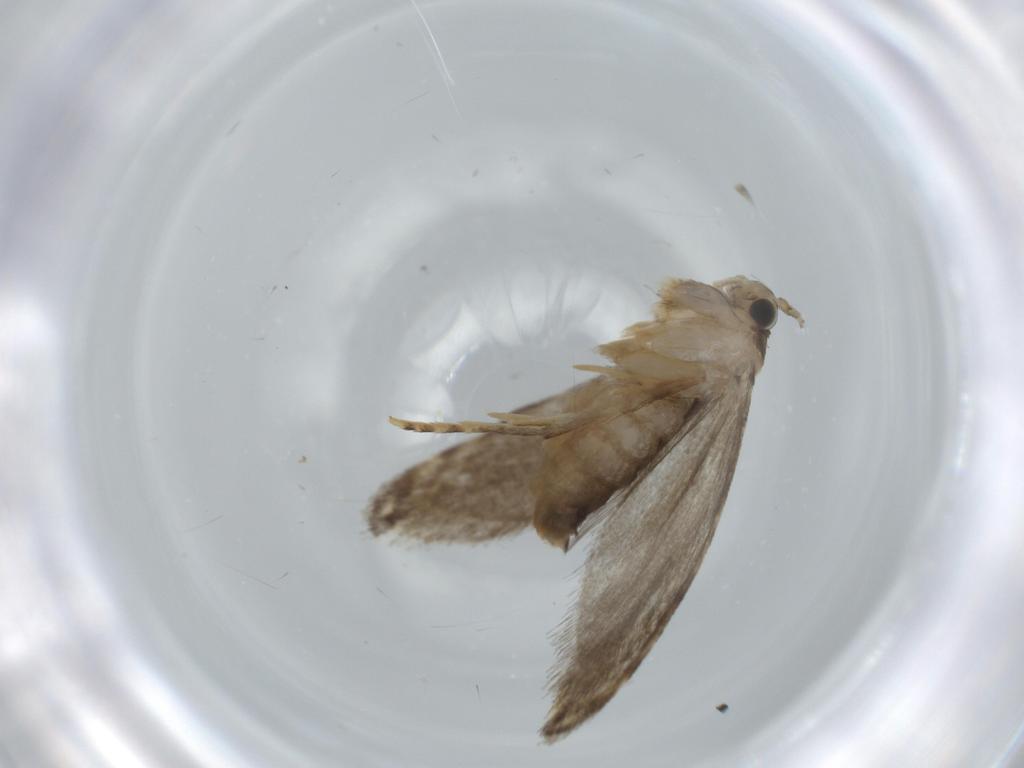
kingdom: Animalia
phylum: Arthropoda
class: Insecta
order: Lepidoptera
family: Tineidae
